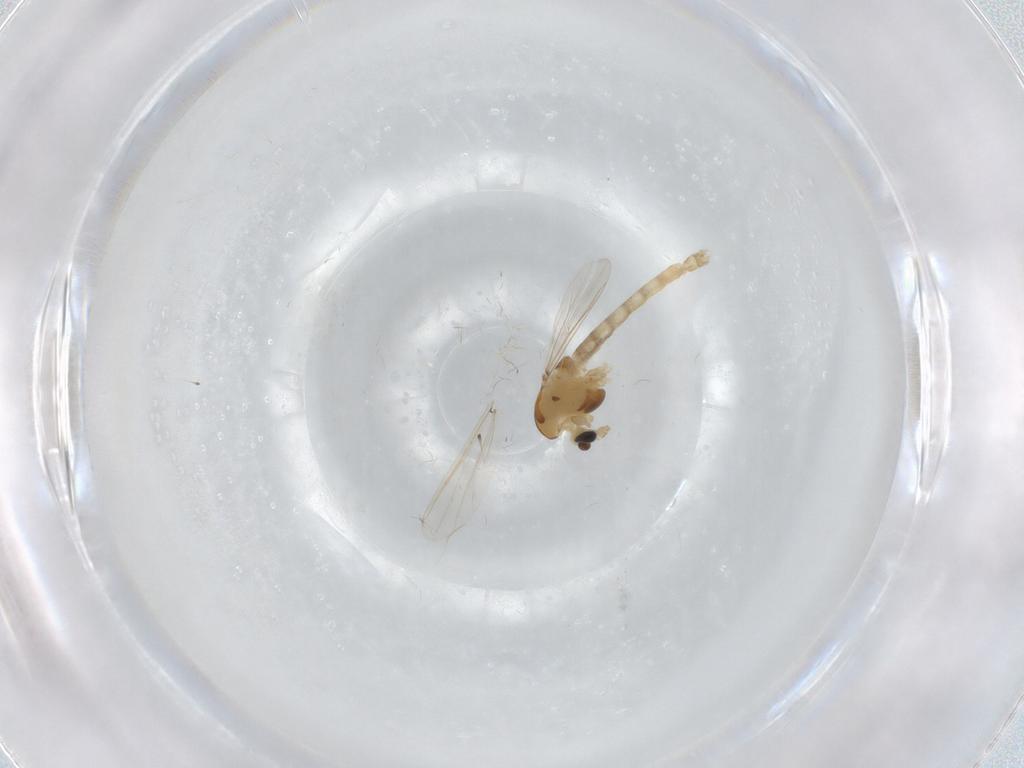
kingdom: Animalia
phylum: Arthropoda
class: Insecta
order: Diptera
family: Chironomidae
